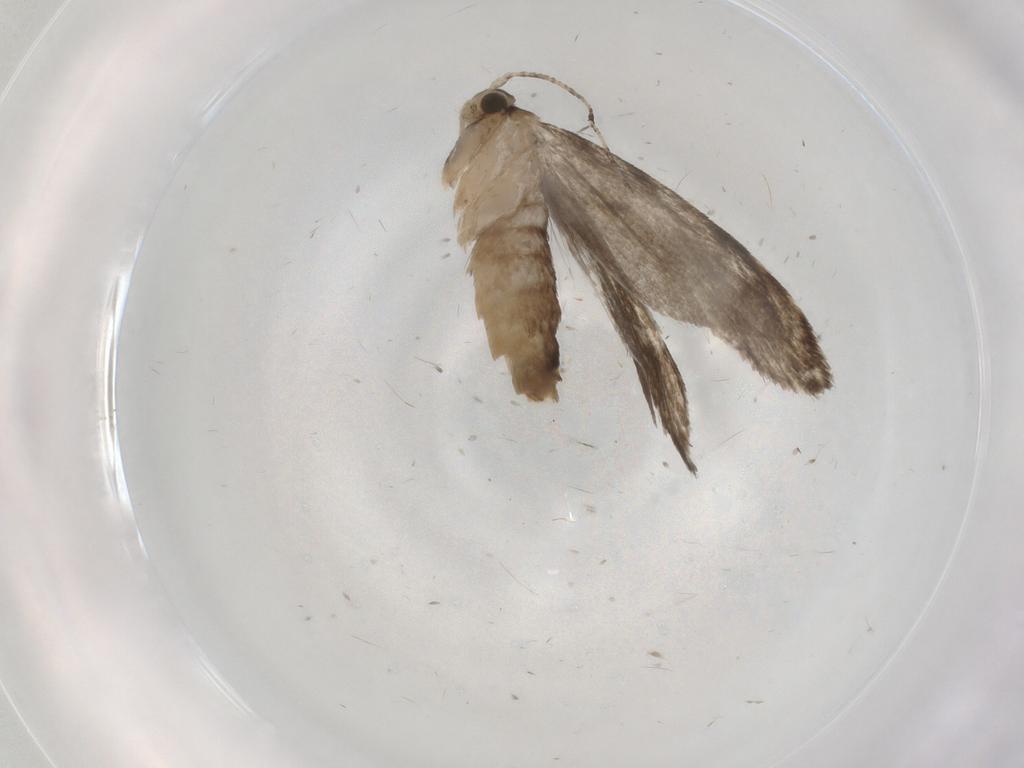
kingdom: Animalia
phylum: Arthropoda
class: Insecta
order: Lepidoptera
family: Tineidae
